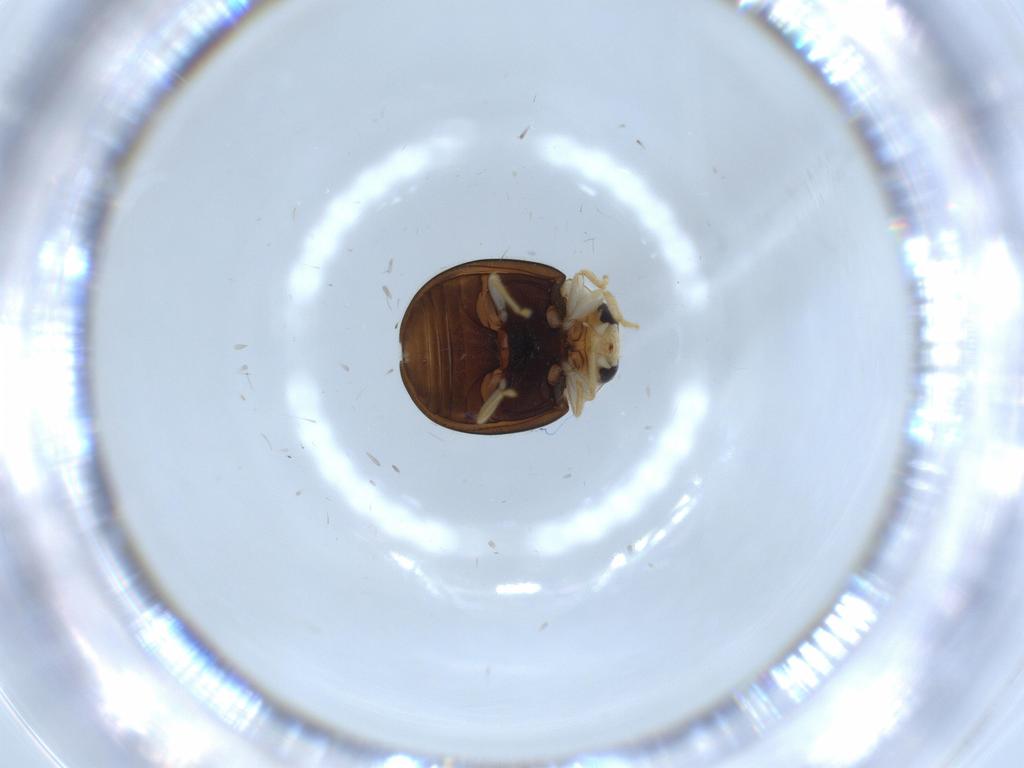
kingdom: Animalia
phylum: Arthropoda
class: Insecta
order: Coleoptera
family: Coccinellidae
